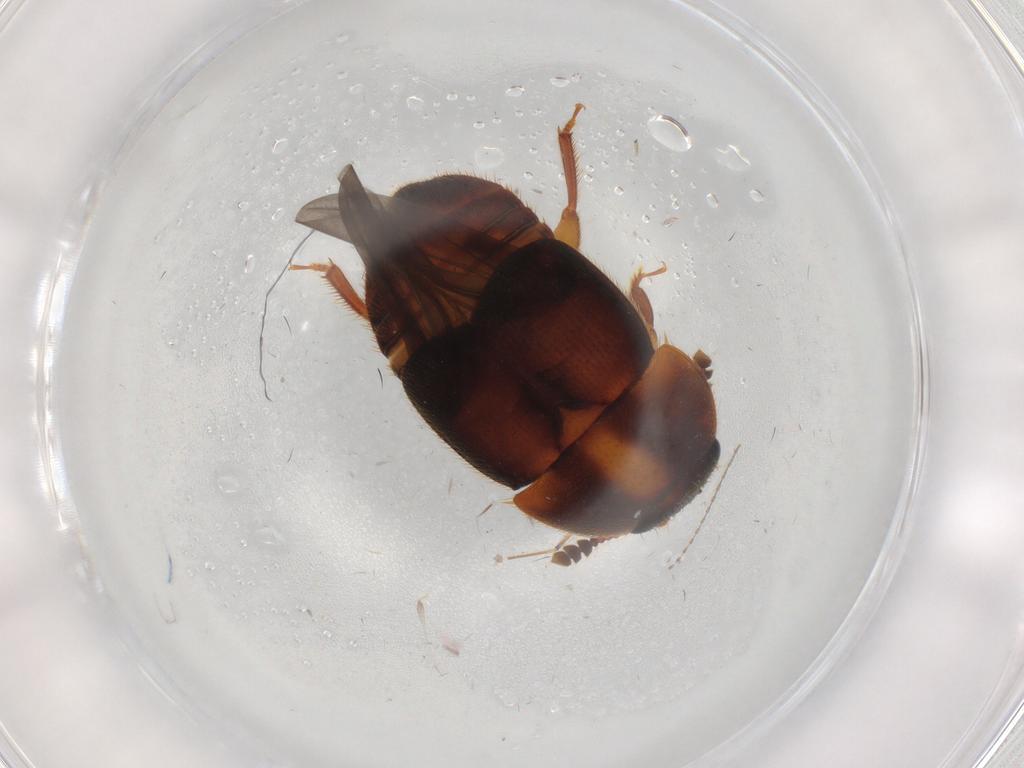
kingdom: Animalia
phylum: Arthropoda
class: Insecta
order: Coleoptera
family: Nitidulidae
